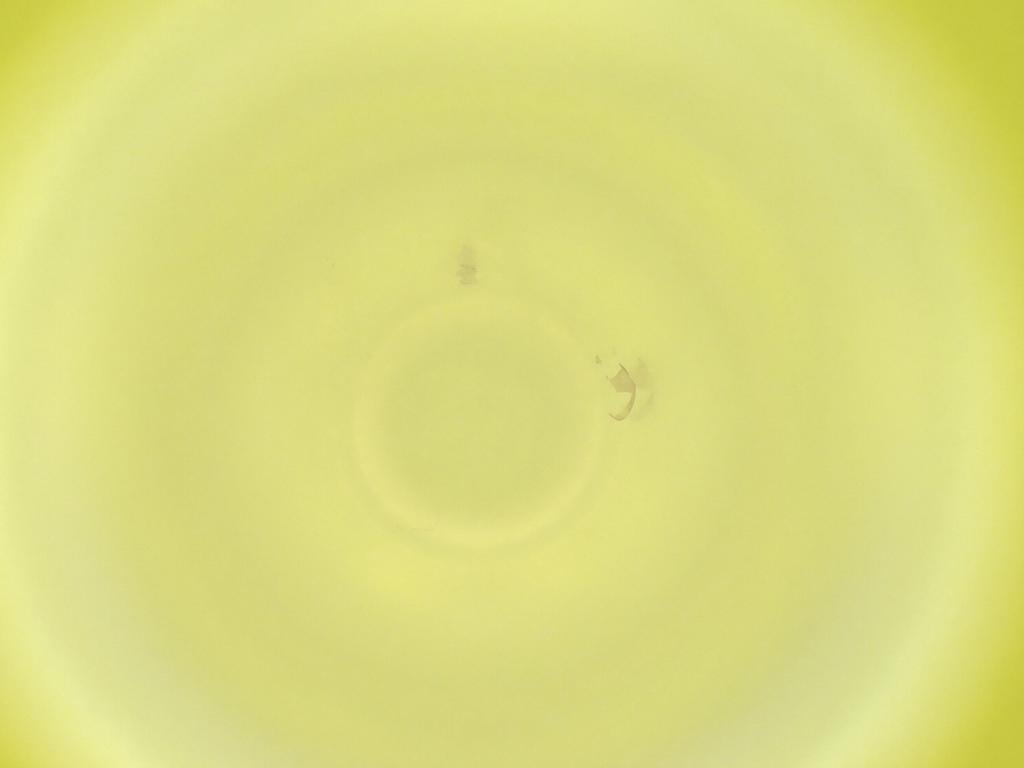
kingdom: Animalia
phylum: Arthropoda
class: Insecta
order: Diptera
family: Cecidomyiidae
